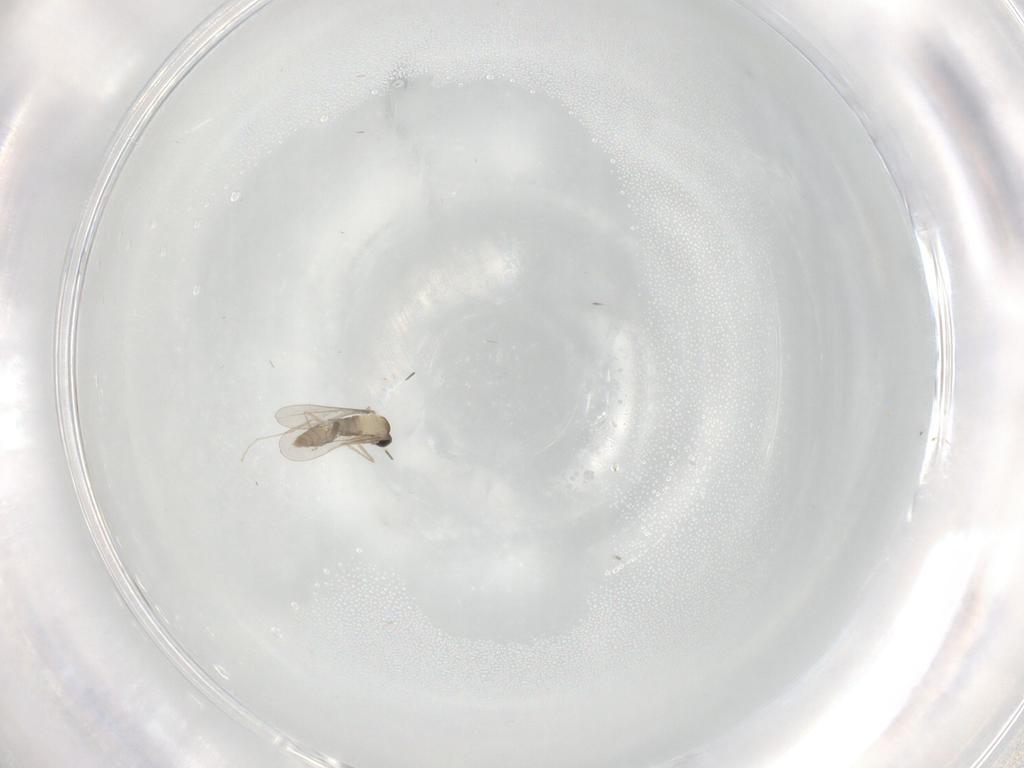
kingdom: Animalia
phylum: Arthropoda
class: Insecta
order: Diptera
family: Cecidomyiidae
